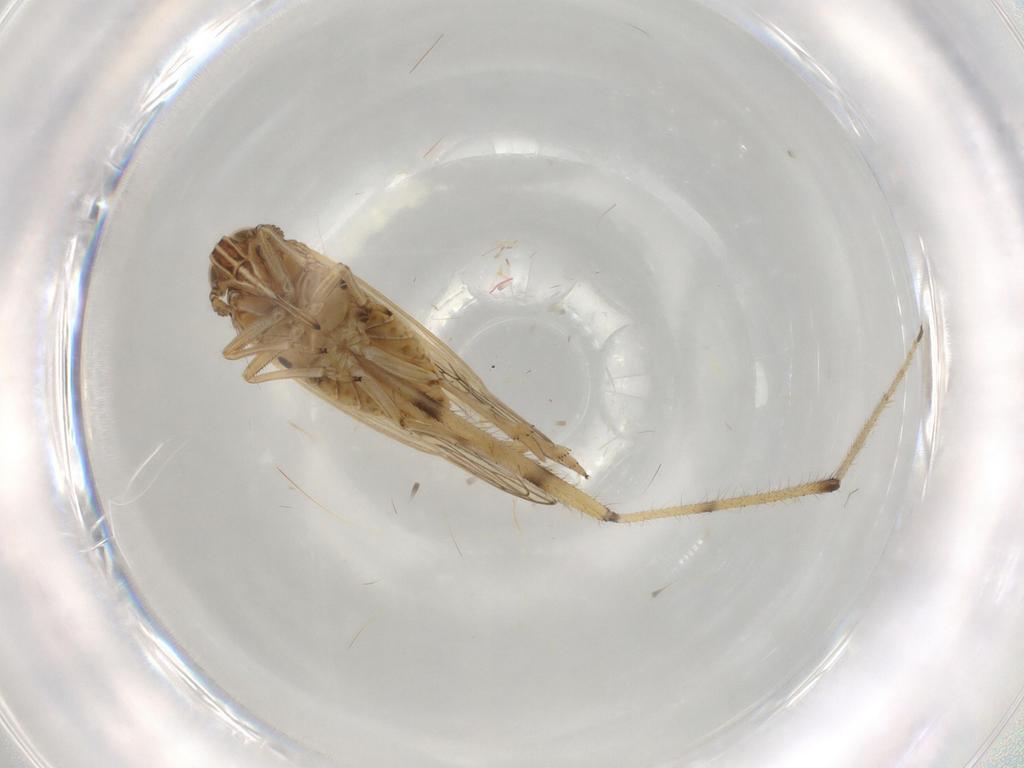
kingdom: Animalia
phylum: Arthropoda
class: Insecta
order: Hemiptera
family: Delphacidae
